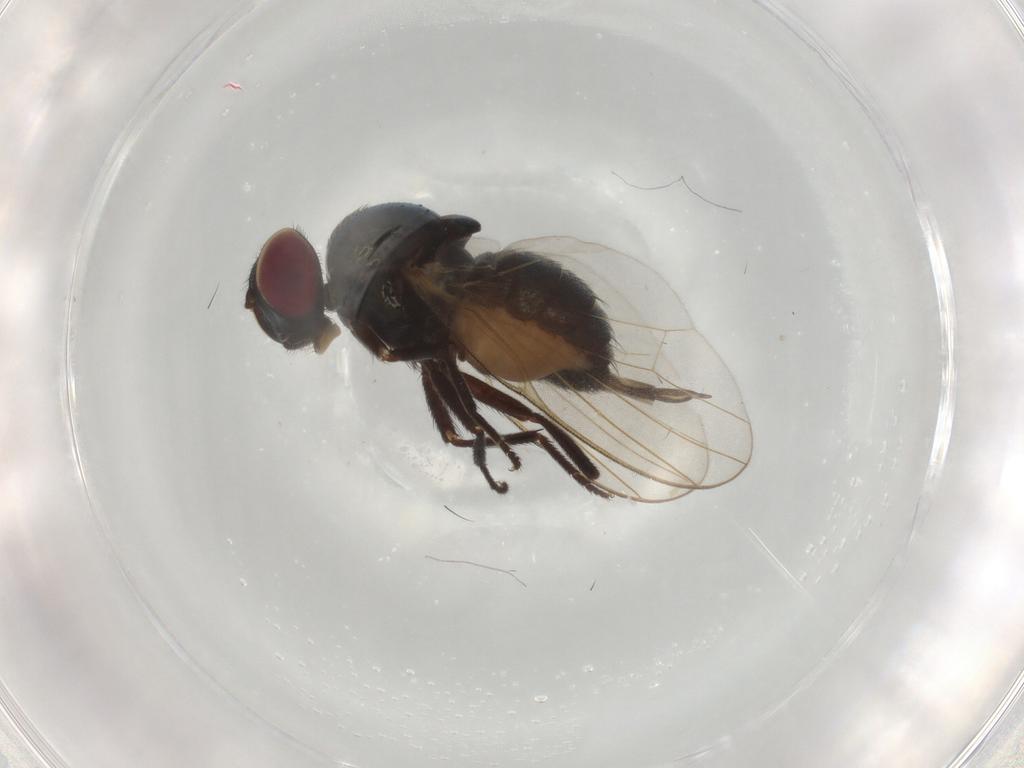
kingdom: Animalia
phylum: Arthropoda
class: Insecta
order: Diptera
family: Lonchaeidae
